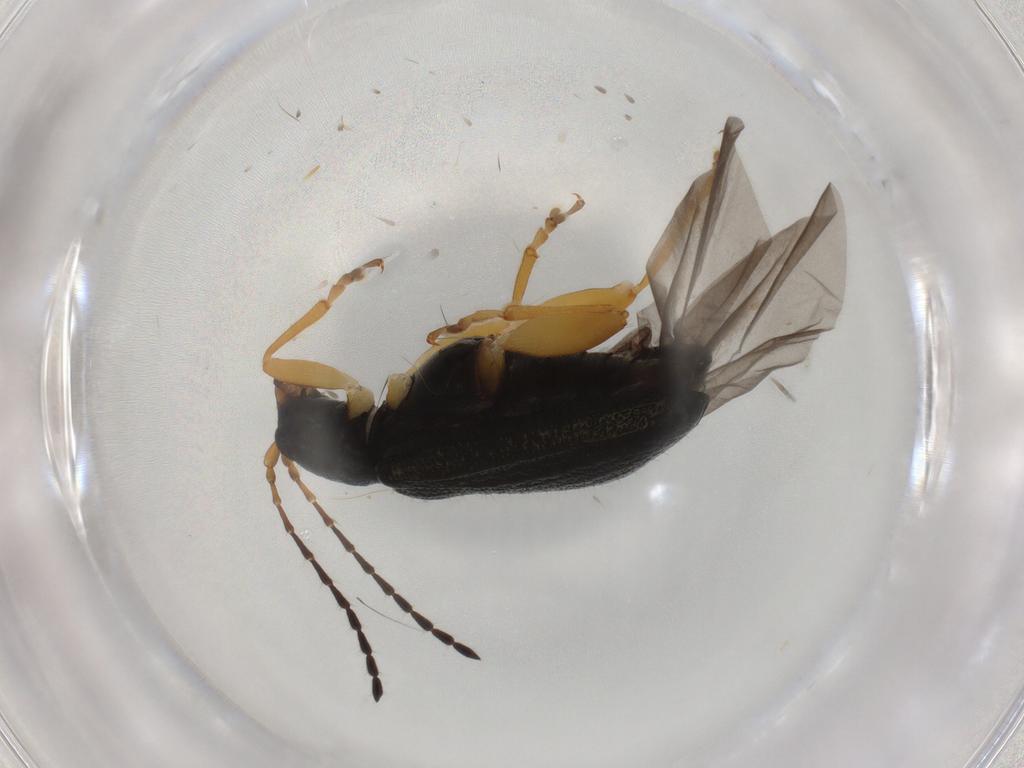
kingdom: Animalia
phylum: Arthropoda
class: Insecta
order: Coleoptera
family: Chrysomelidae
